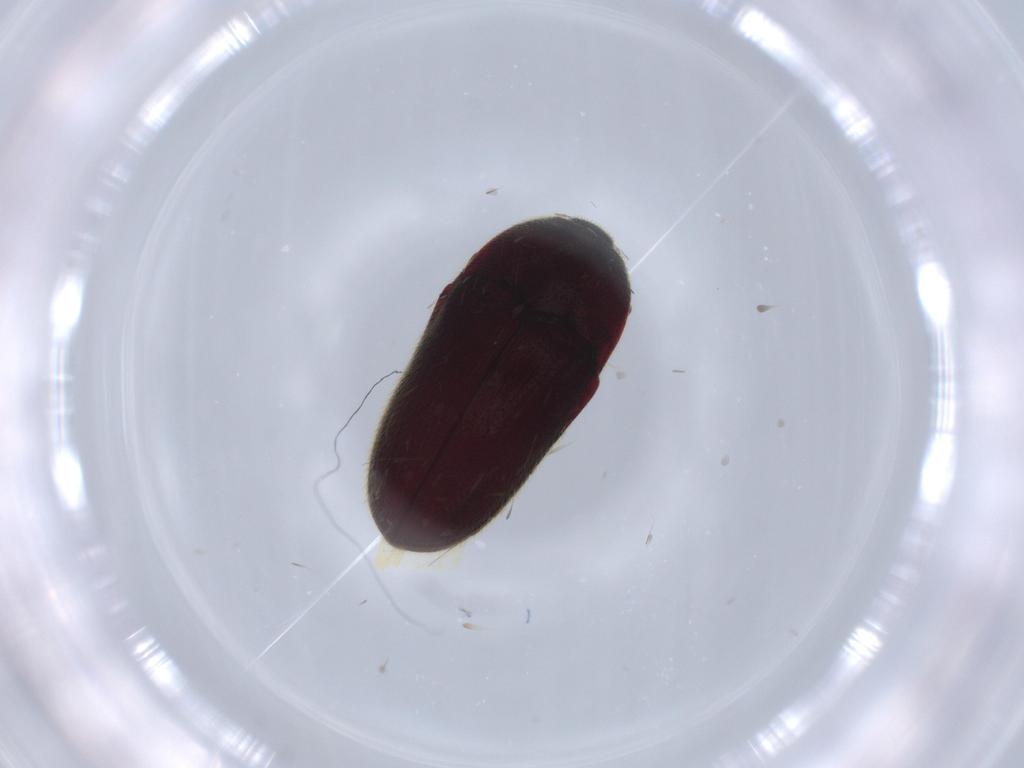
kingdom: Animalia
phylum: Arthropoda
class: Insecta
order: Coleoptera
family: Throscidae
